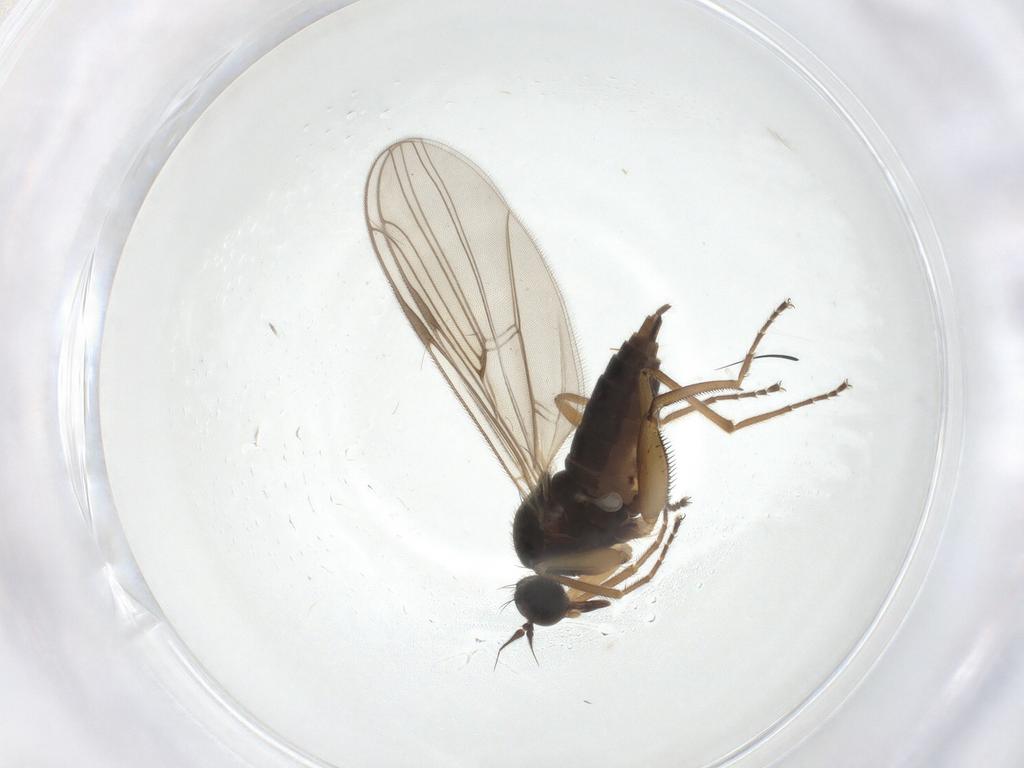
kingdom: Animalia
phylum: Arthropoda
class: Insecta
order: Diptera
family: Hybotidae
